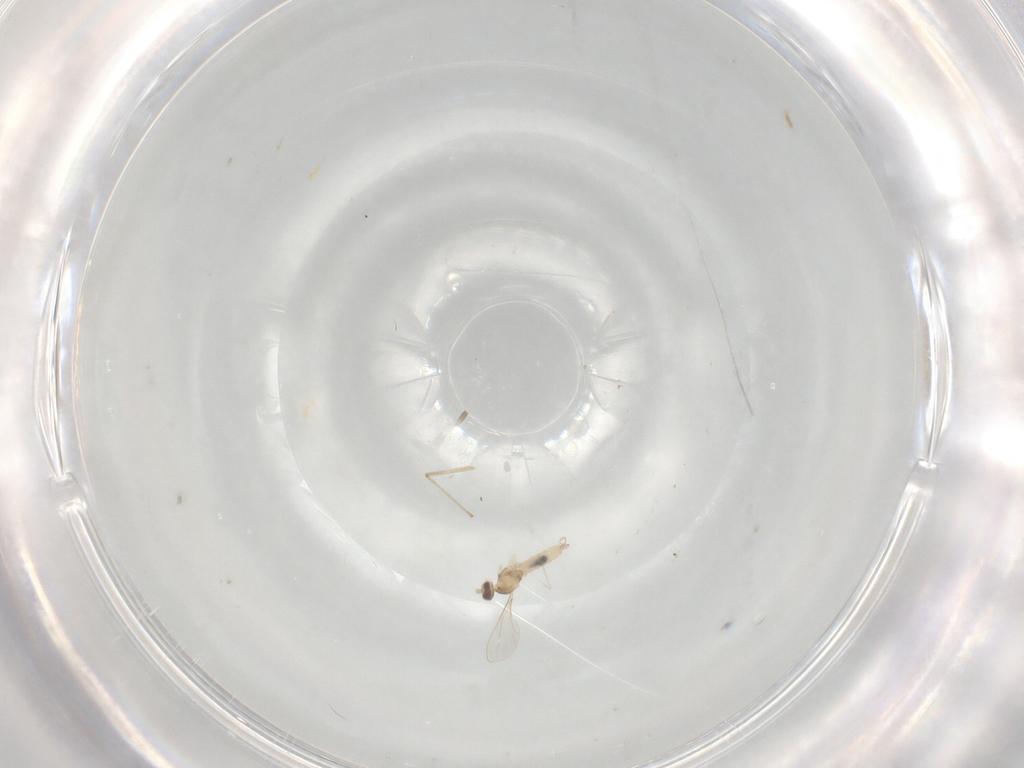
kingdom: Animalia
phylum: Arthropoda
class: Insecta
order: Diptera
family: Cecidomyiidae
